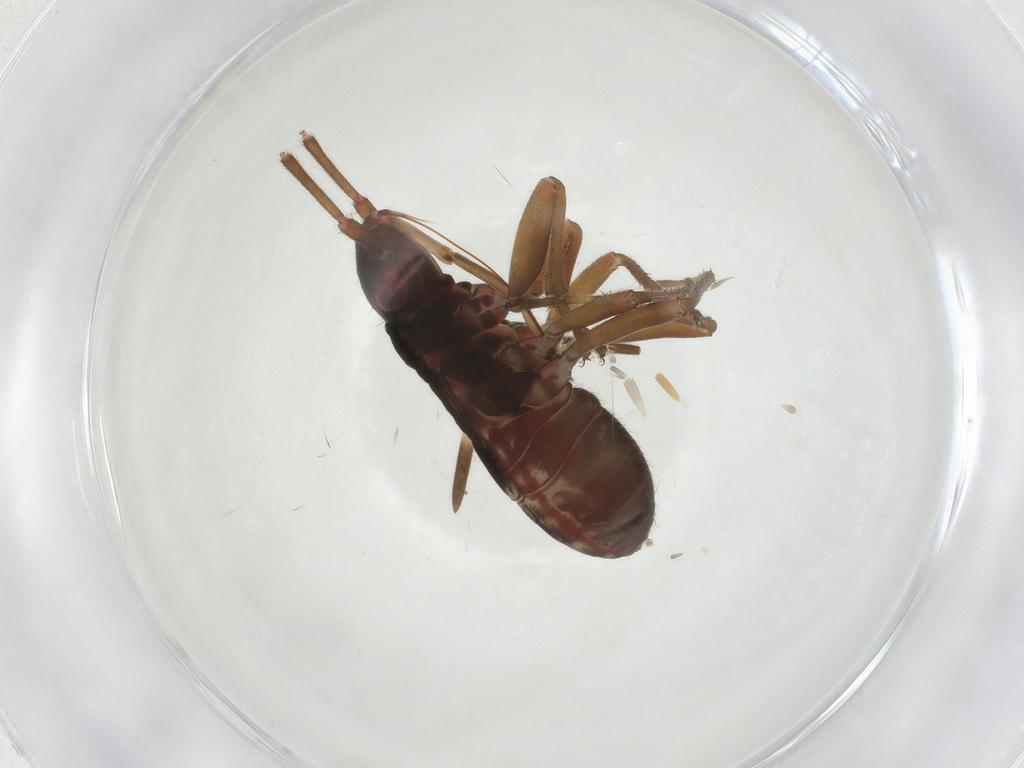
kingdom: Animalia
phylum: Arthropoda
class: Insecta
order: Hemiptera
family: Rhyparochromidae
